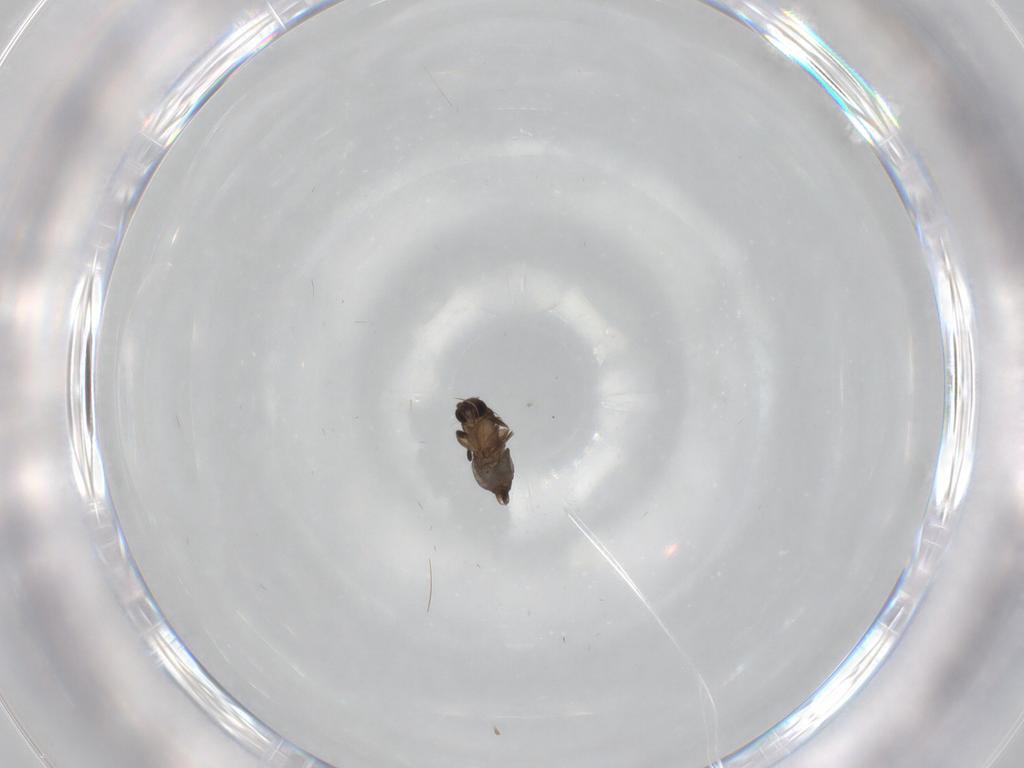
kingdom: Animalia
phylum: Arthropoda
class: Insecta
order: Diptera
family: Phoridae
